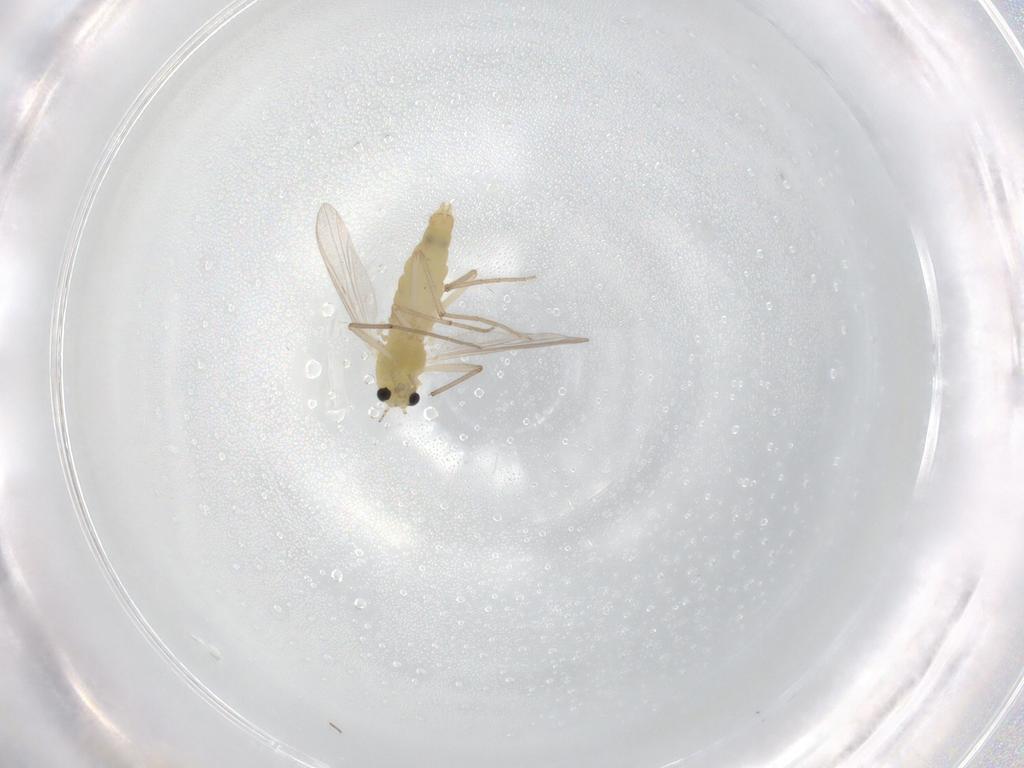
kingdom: Animalia
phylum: Arthropoda
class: Insecta
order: Diptera
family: Chironomidae
